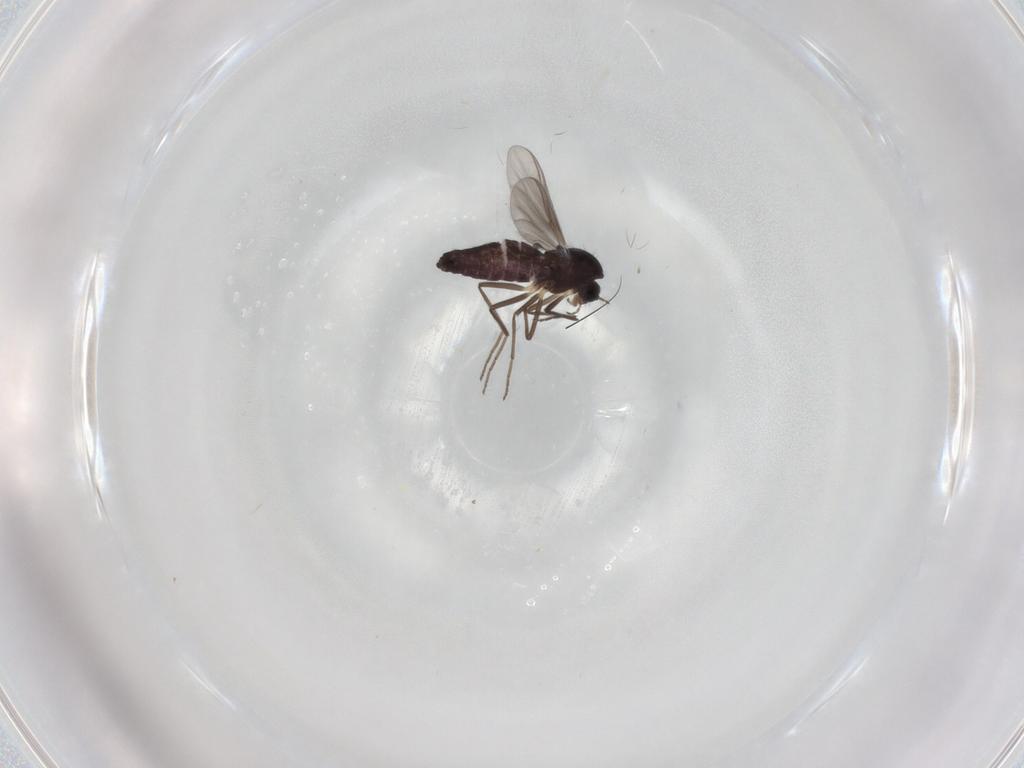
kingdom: Animalia
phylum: Arthropoda
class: Insecta
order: Diptera
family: Chironomidae
